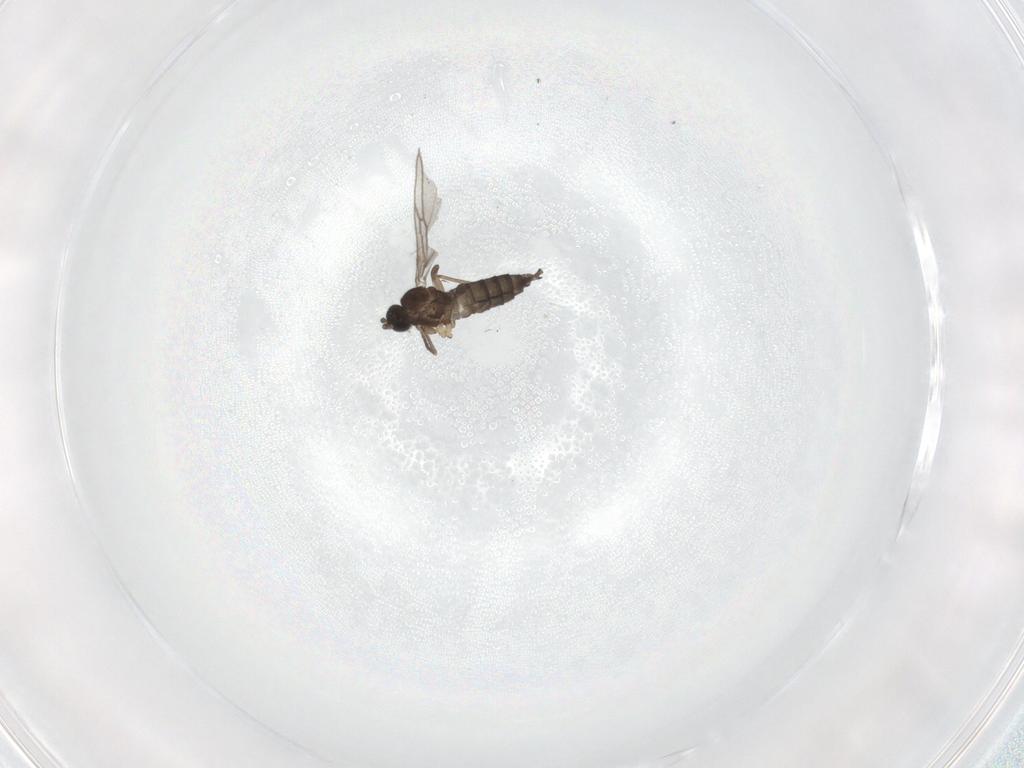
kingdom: Animalia
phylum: Arthropoda
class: Insecta
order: Diptera
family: Sciaridae
